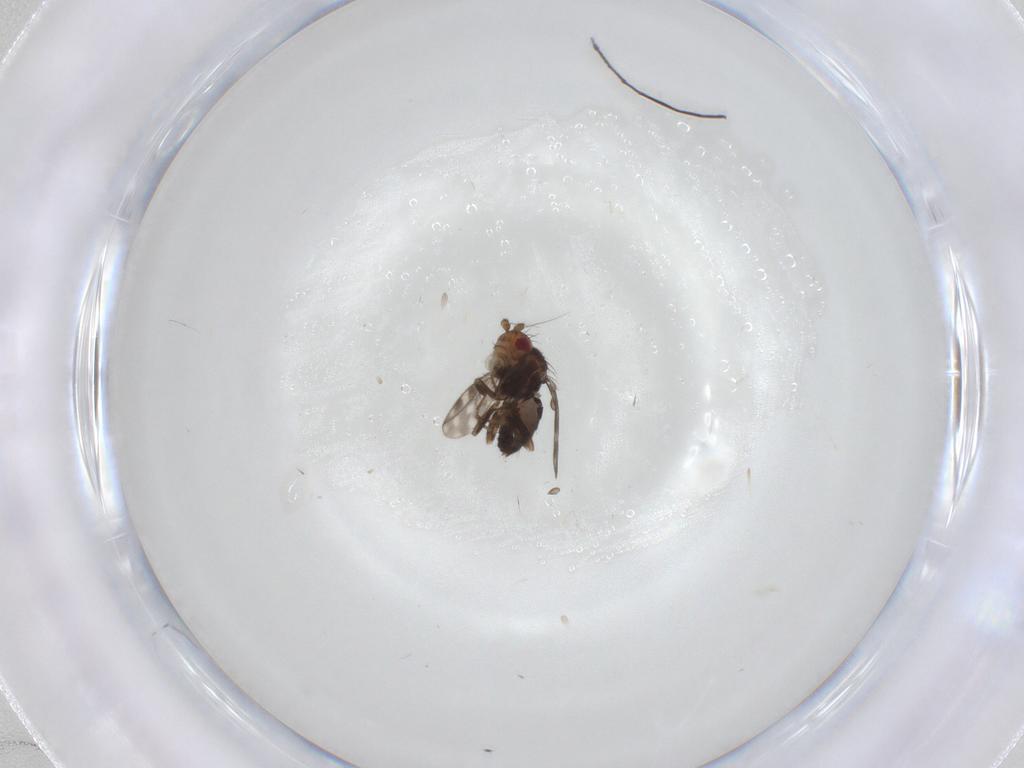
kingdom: Animalia
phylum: Arthropoda
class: Insecta
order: Diptera
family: Sphaeroceridae
